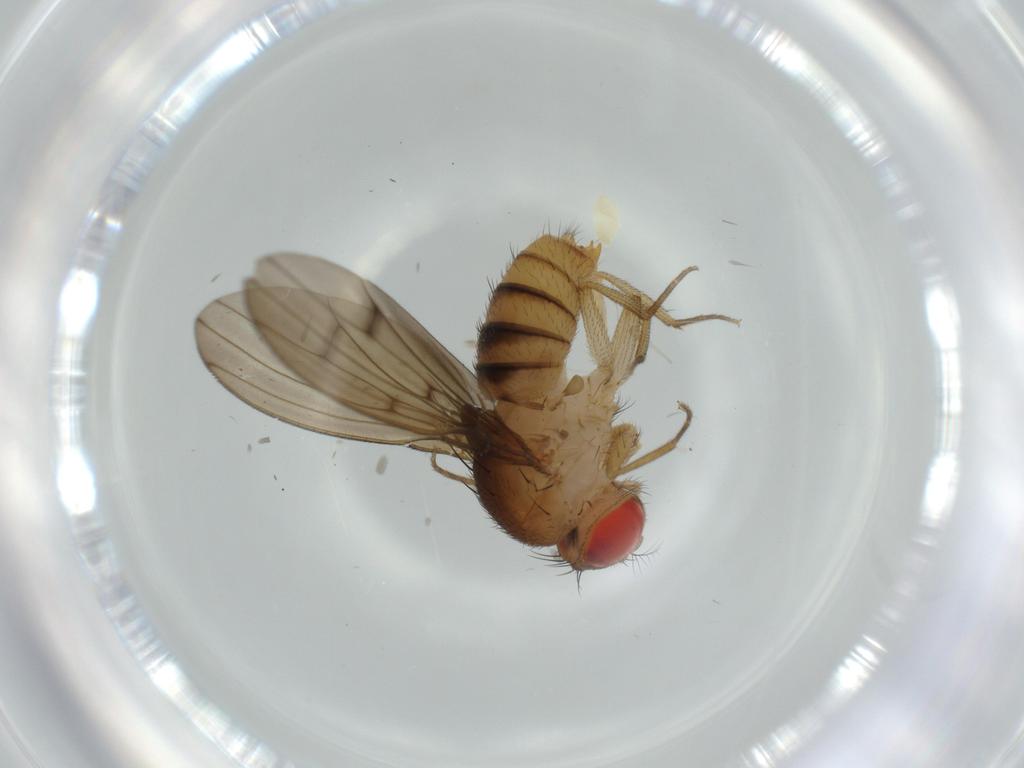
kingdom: Animalia
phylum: Arthropoda
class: Insecta
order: Diptera
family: Drosophilidae
